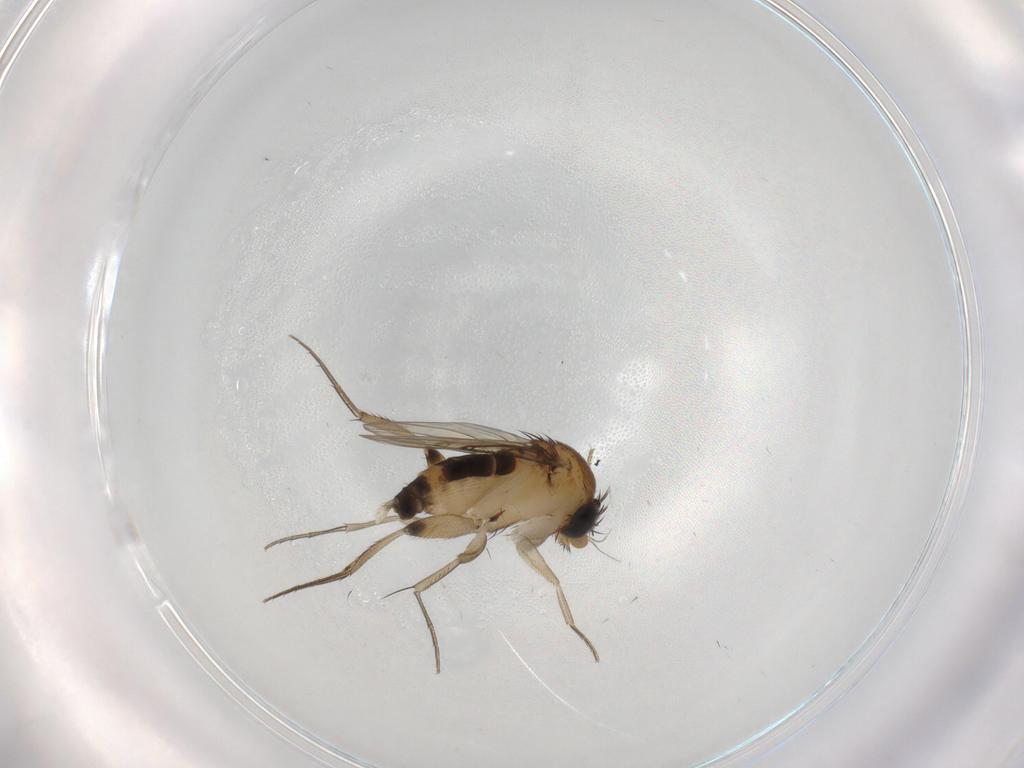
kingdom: Animalia
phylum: Arthropoda
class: Insecta
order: Diptera
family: Phoridae
